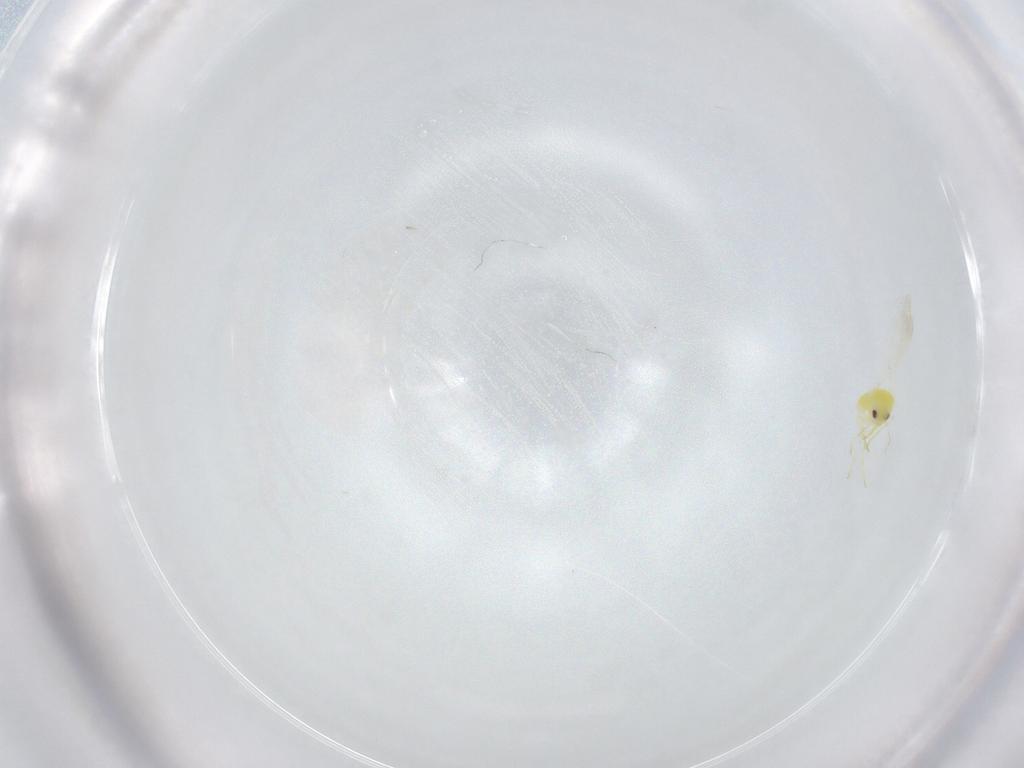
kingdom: Animalia
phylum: Arthropoda
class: Insecta
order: Hemiptera
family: Aleyrodidae
